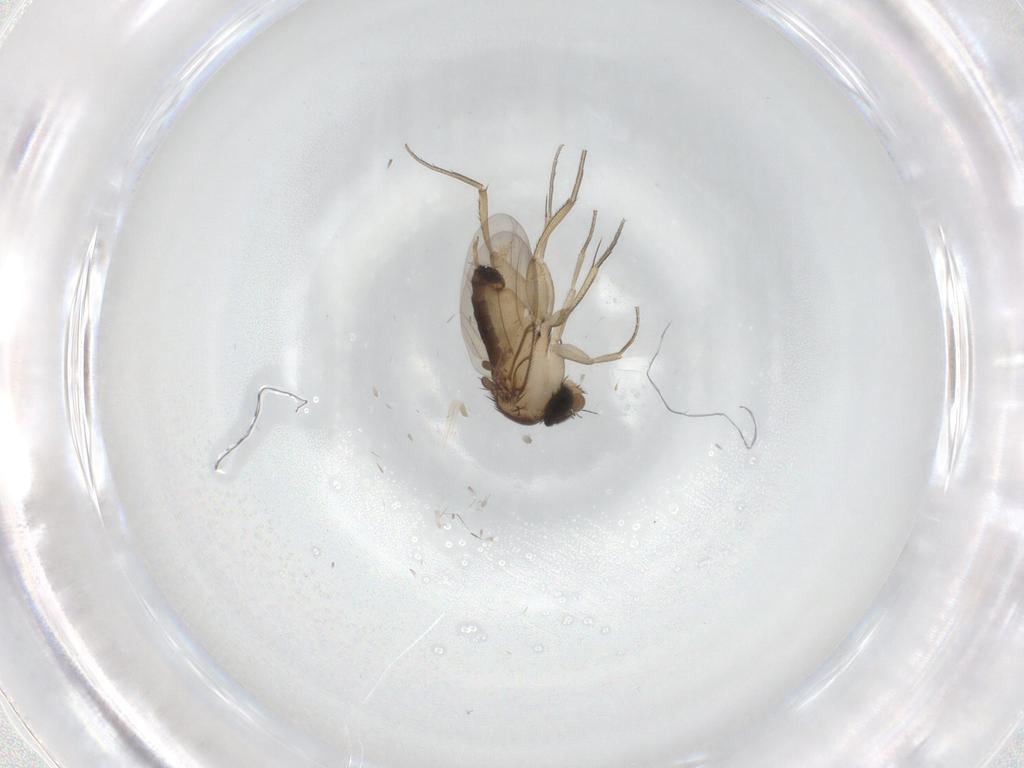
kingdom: Animalia
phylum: Arthropoda
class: Insecta
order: Diptera
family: Phoridae
